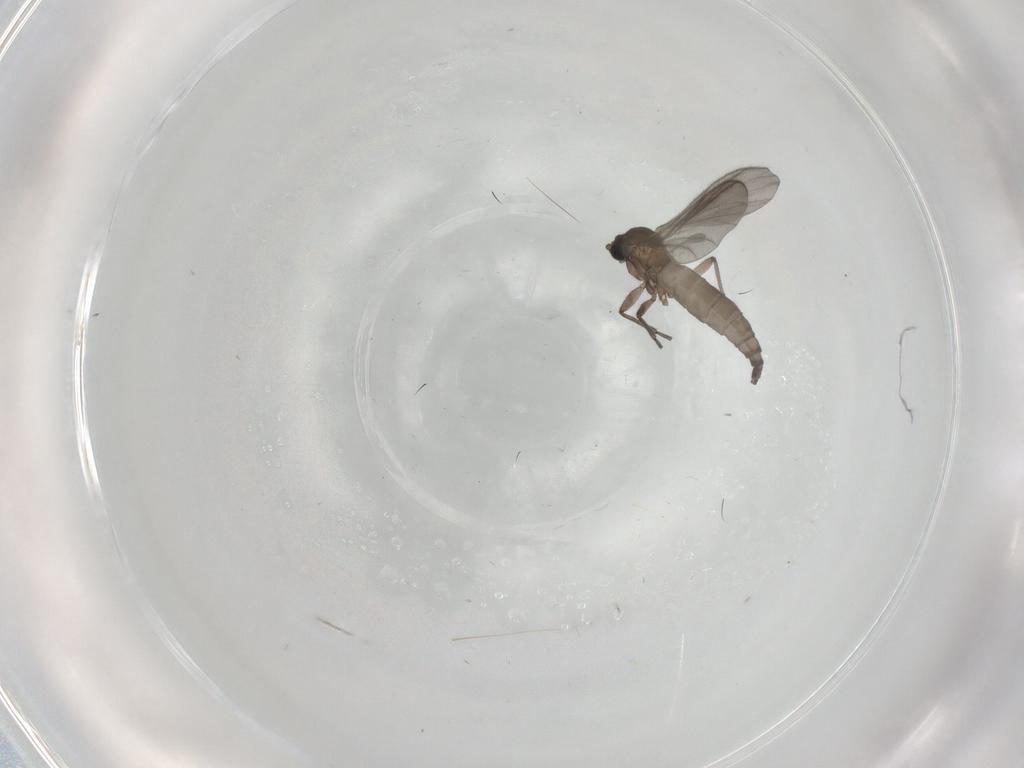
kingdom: Animalia
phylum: Arthropoda
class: Insecta
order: Diptera
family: Sciaridae
